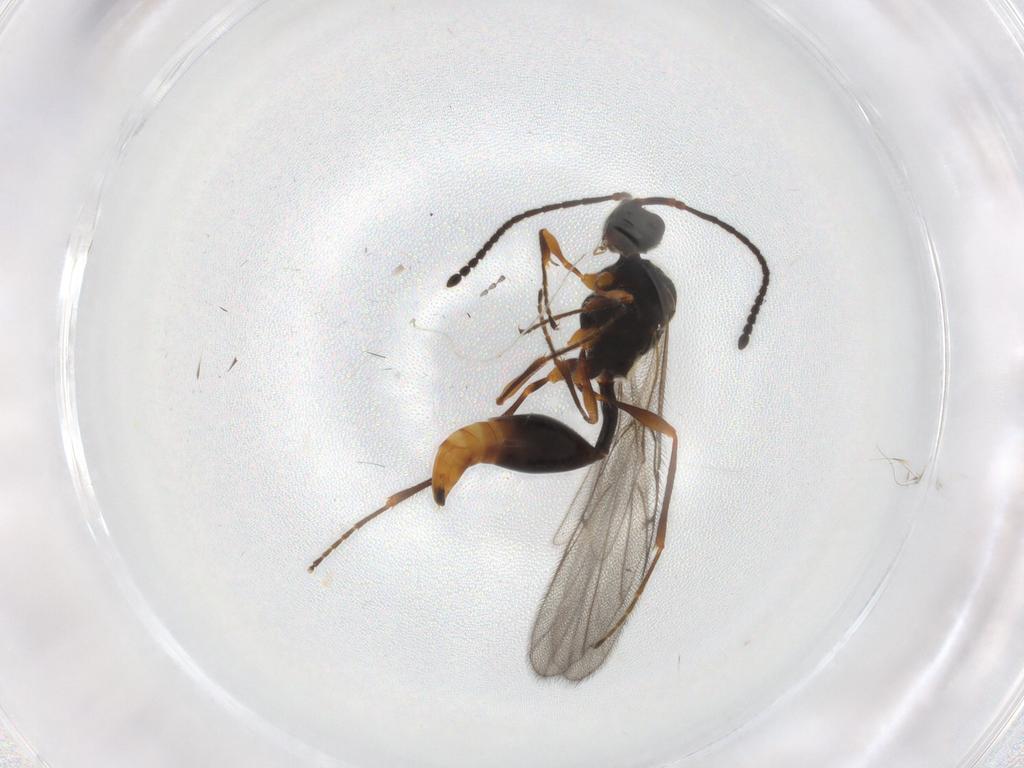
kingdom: Animalia
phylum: Arthropoda
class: Insecta
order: Hymenoptera
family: Diapriidae
